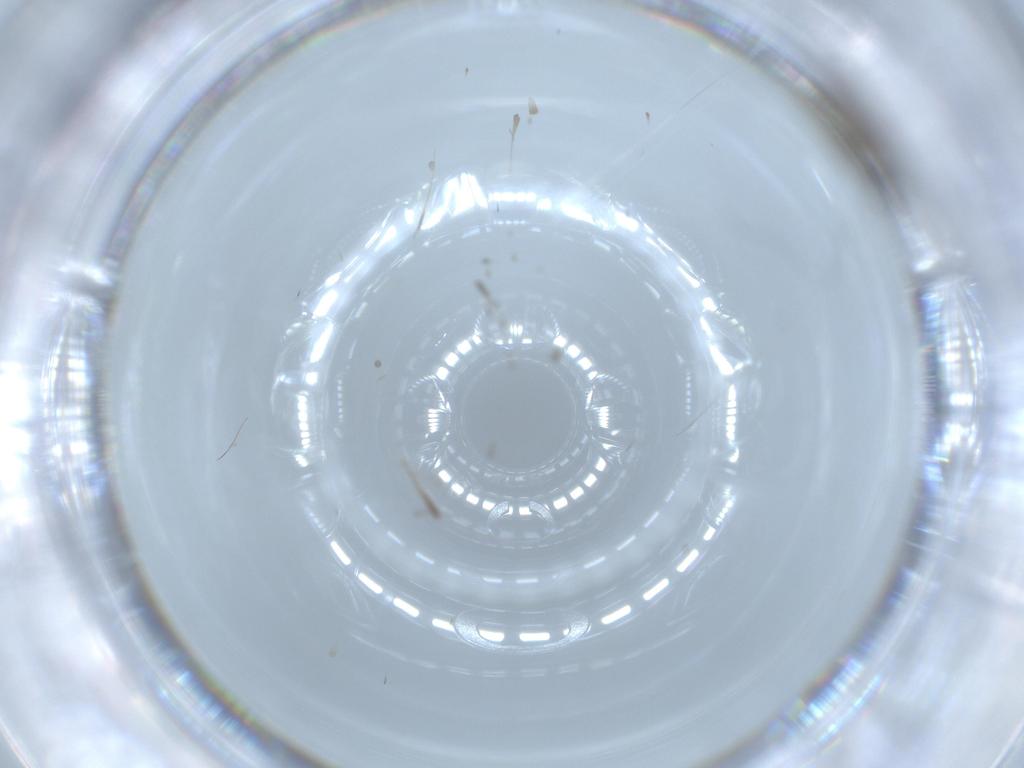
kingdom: Animalia
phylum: Arthropoda
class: Insecta
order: Diptera
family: Cecidomyiidae
